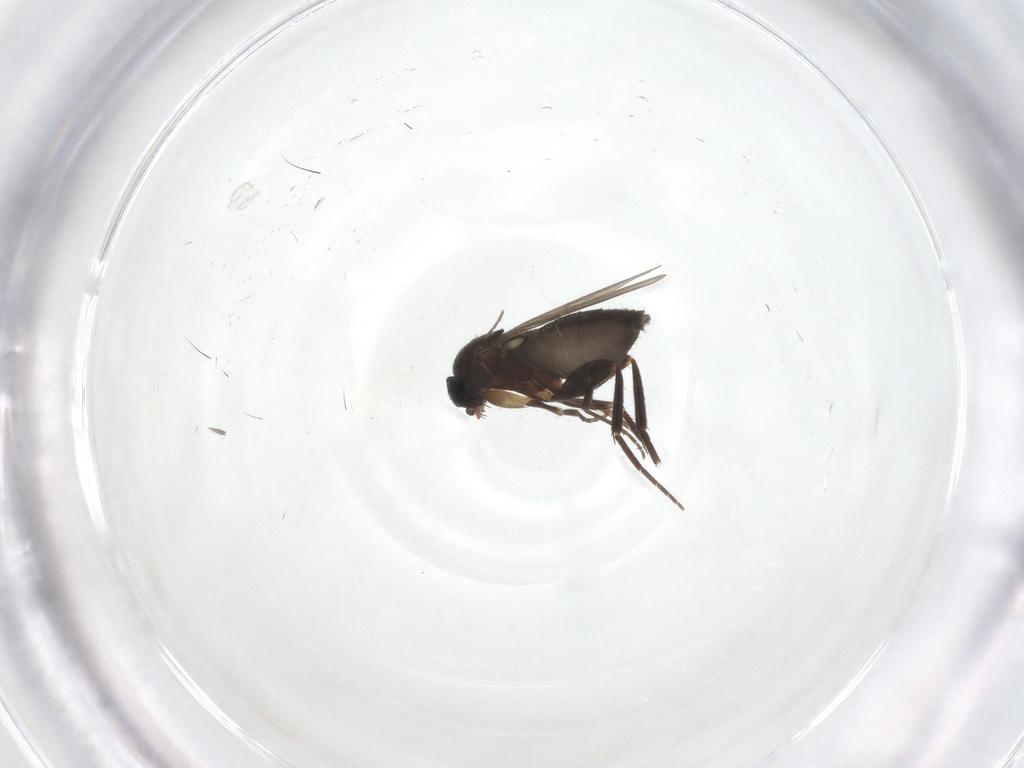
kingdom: Animalia
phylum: Arthropoda
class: Insecta
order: Diptera
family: Phoridae
